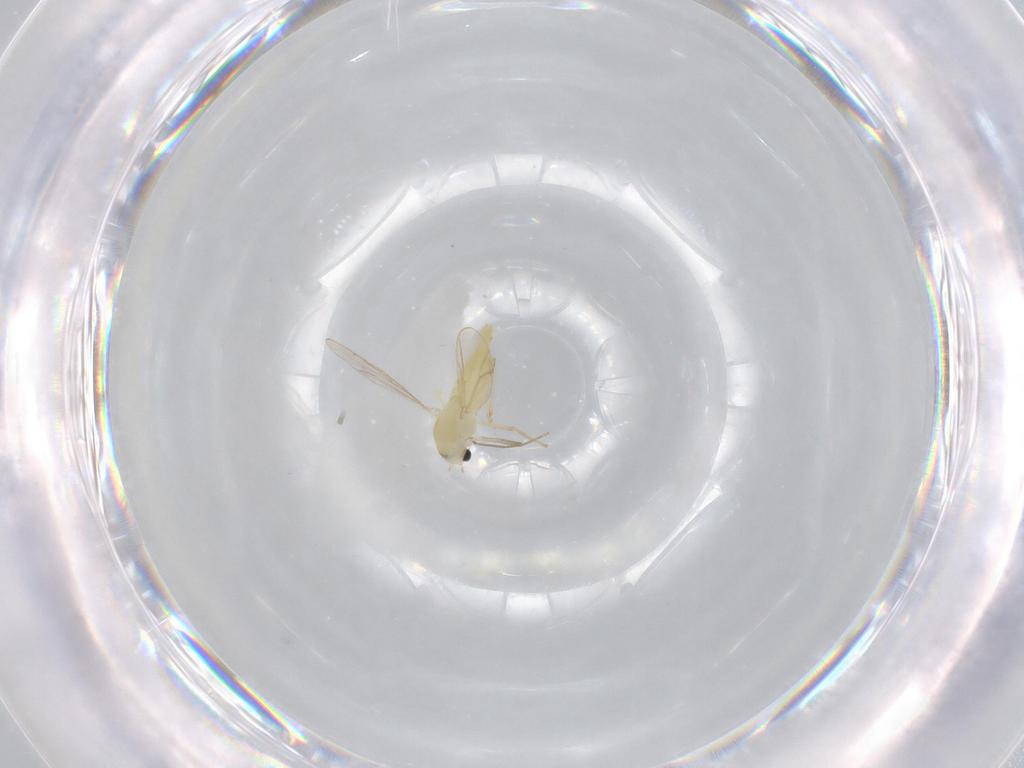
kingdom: Animalia
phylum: Arthropoda
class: Insecta
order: Diptera
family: Chironomidae
